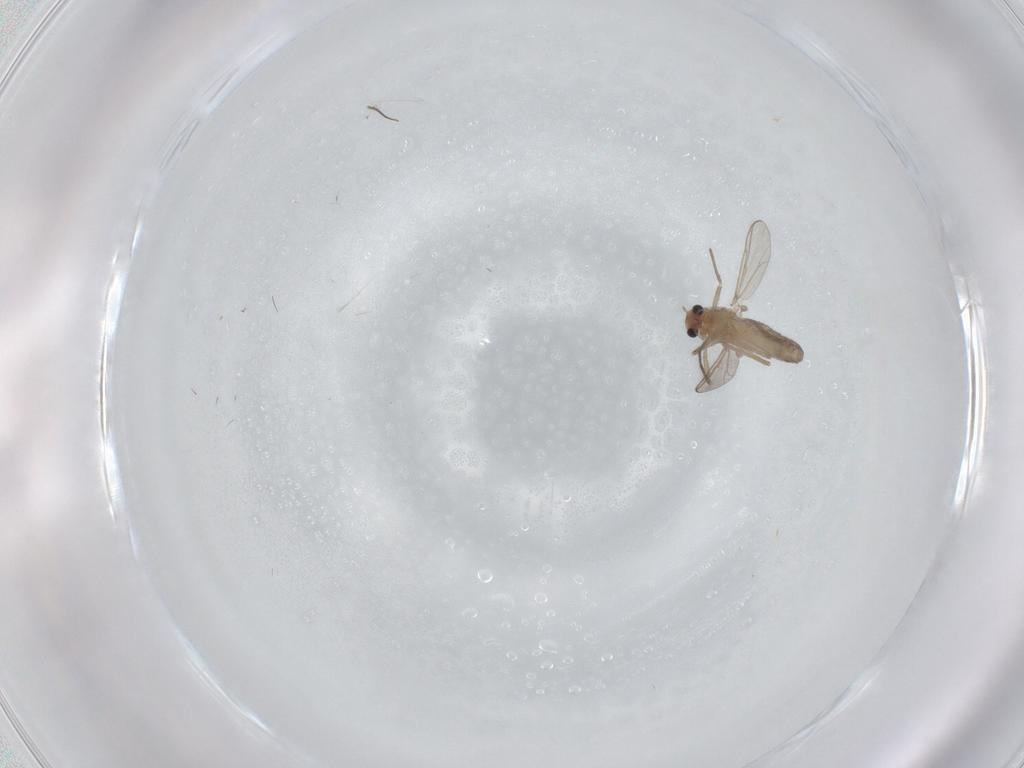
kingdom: Animalia
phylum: Arthropoda
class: Insecta
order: Diptera
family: Chironomidae
